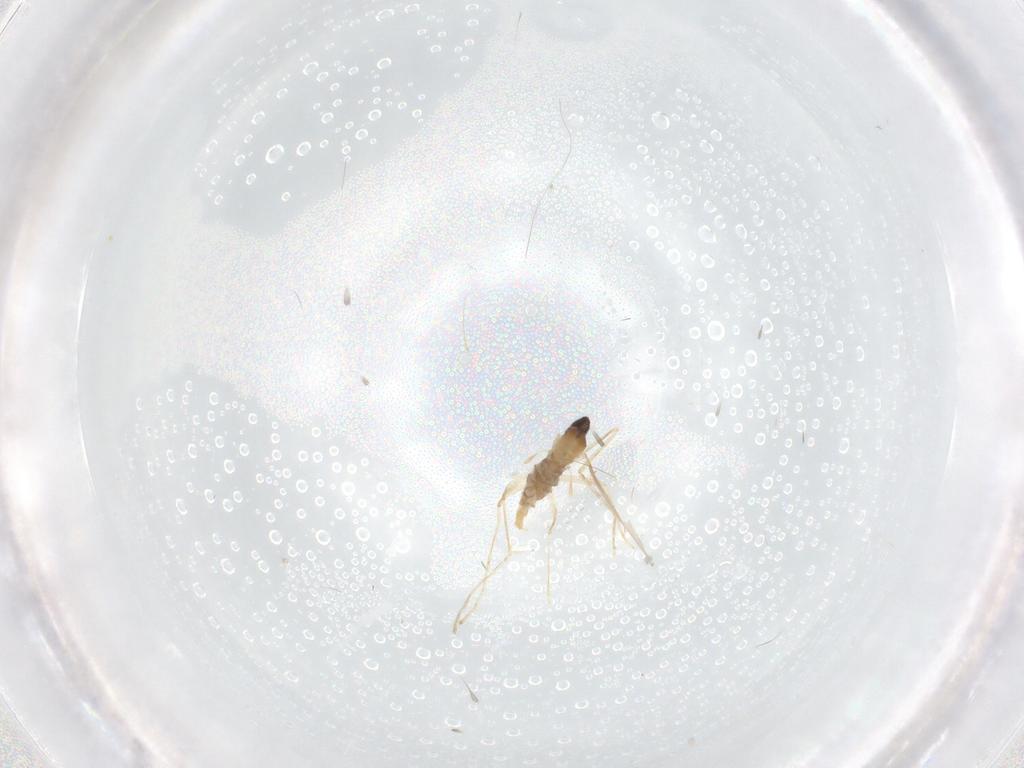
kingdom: Animalia
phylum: Arthropoda
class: Insecta
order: Diptera
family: Cecidomyiidae
